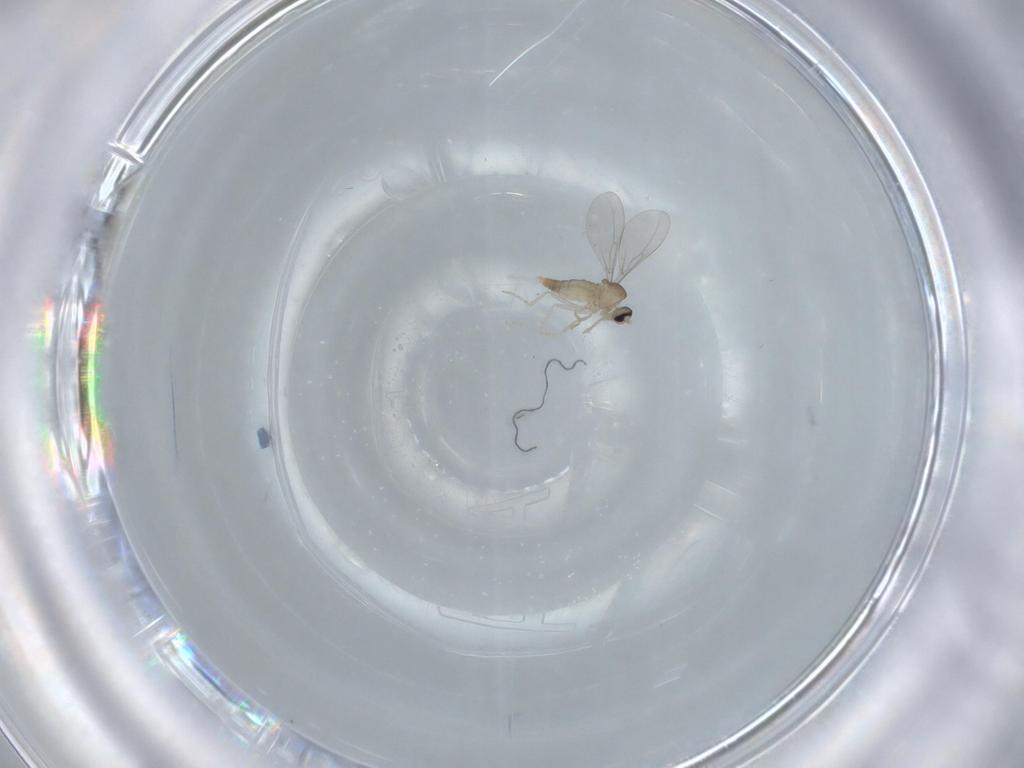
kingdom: Animalia
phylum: Arthropoda
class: Insecta
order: Diptera
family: Cecidomyiidae
